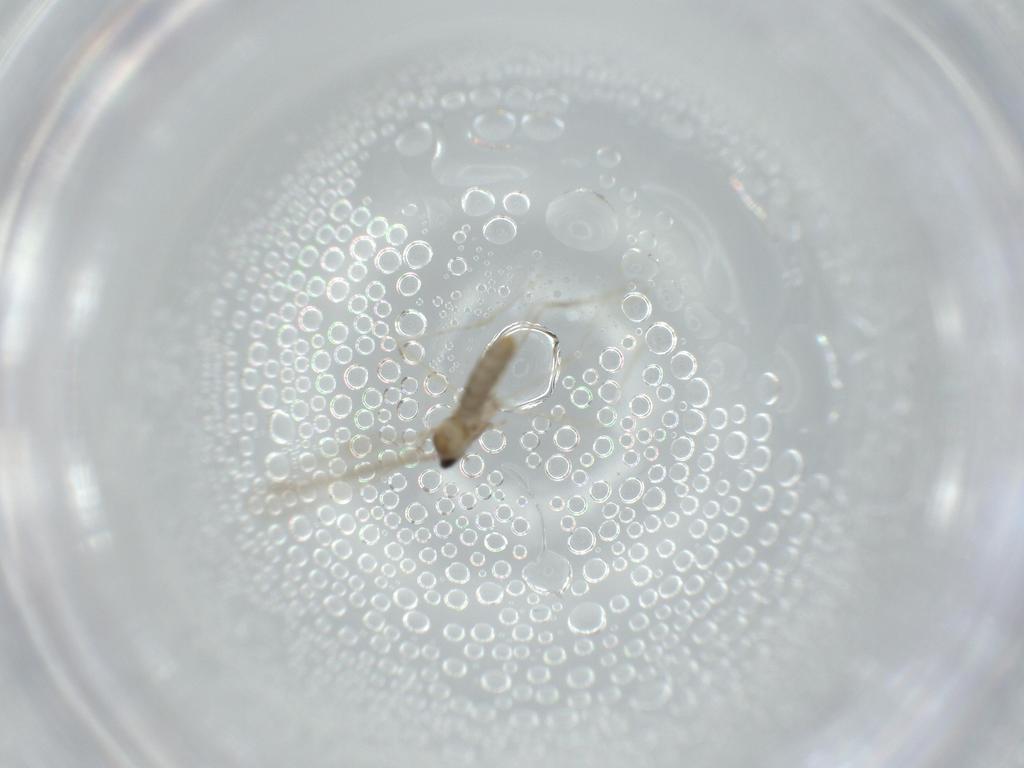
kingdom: Animalia
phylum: Arthropoda
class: Insecta
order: Diptera
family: Cecidomyiidae
